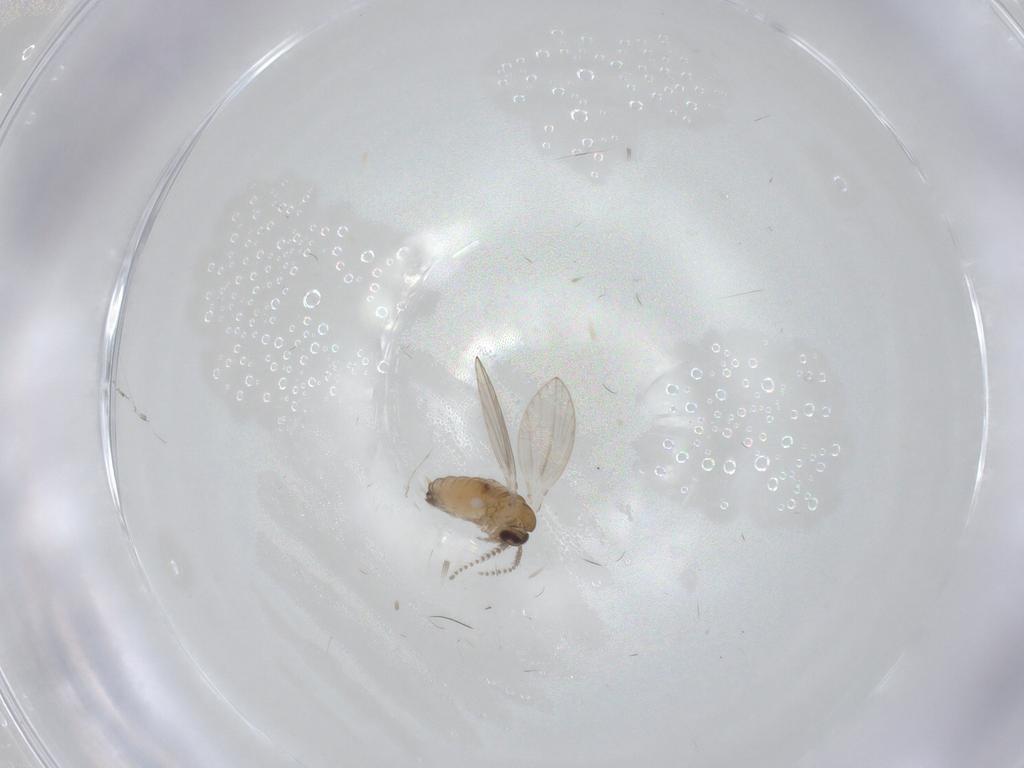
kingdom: Animalia
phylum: Arthropoda
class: Insecta
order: Diptera
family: Psychodidae
